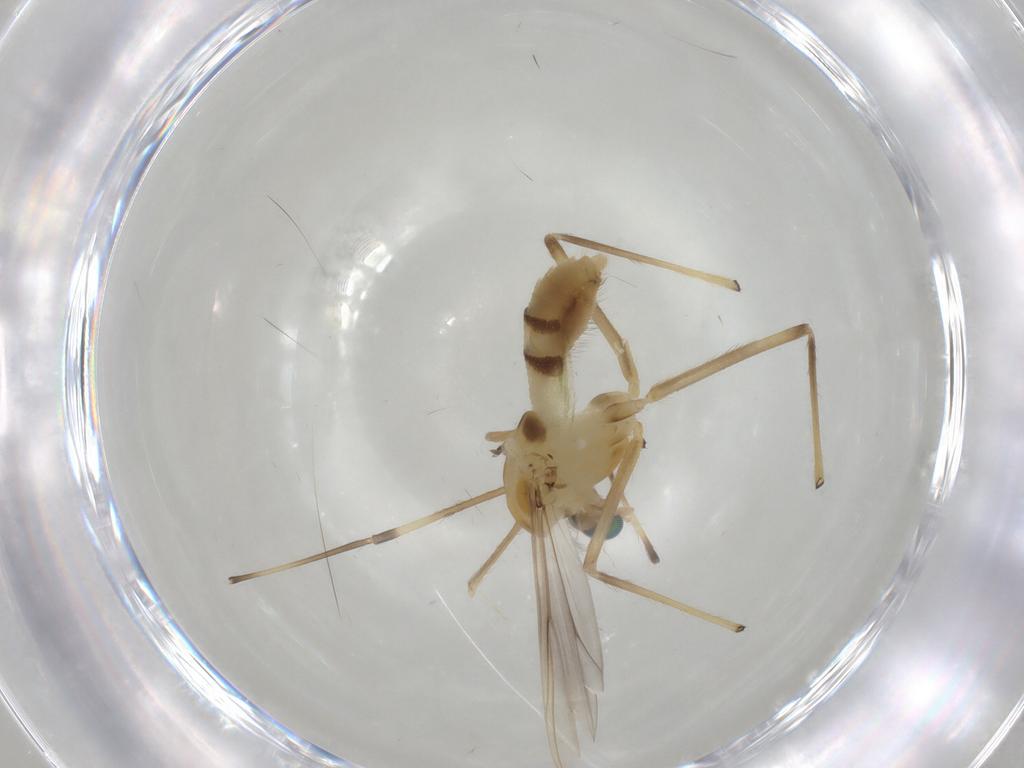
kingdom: Animalia
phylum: Arthropoda
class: Insecta
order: Diptera
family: Chironomidae
